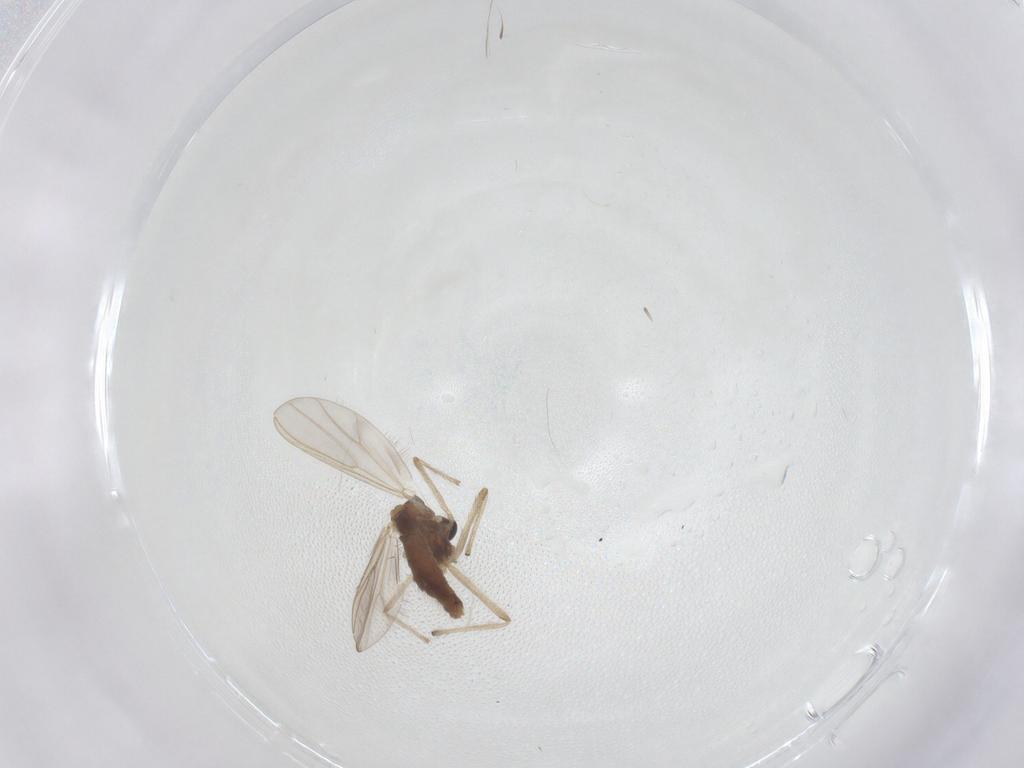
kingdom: Animalia
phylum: Arthropoda
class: Insecta
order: Diptera
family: Chironomidae
